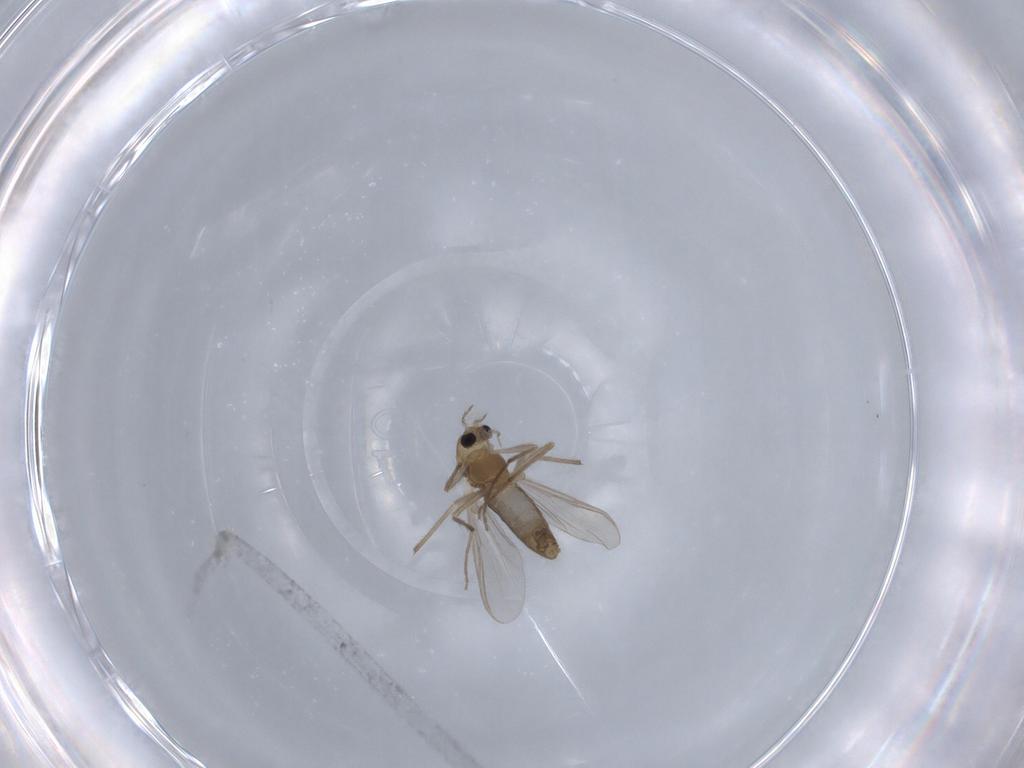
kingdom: Animalia
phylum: Arthropoda
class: Insecta
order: Diptera
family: Chironomidae
